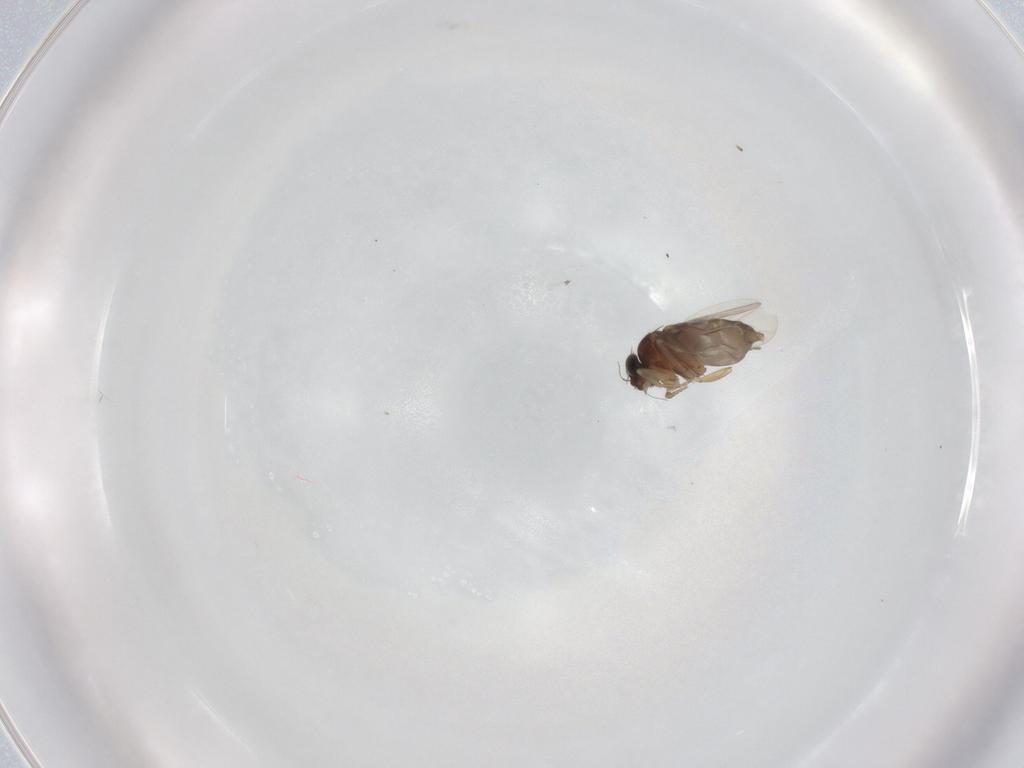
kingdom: Animalia
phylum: Arthropoda
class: Insecta
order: Diptera
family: Phoridae
